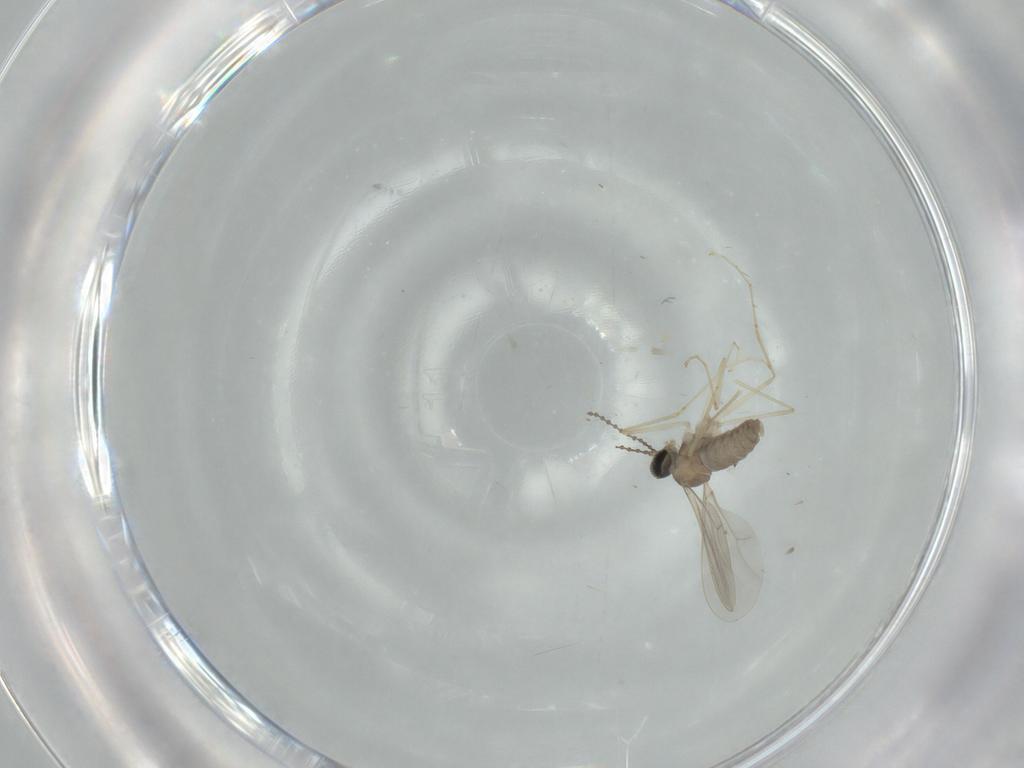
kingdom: Animalia
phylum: Arthropoda
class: Insecta
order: Diptera
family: Cecidomyiidae
